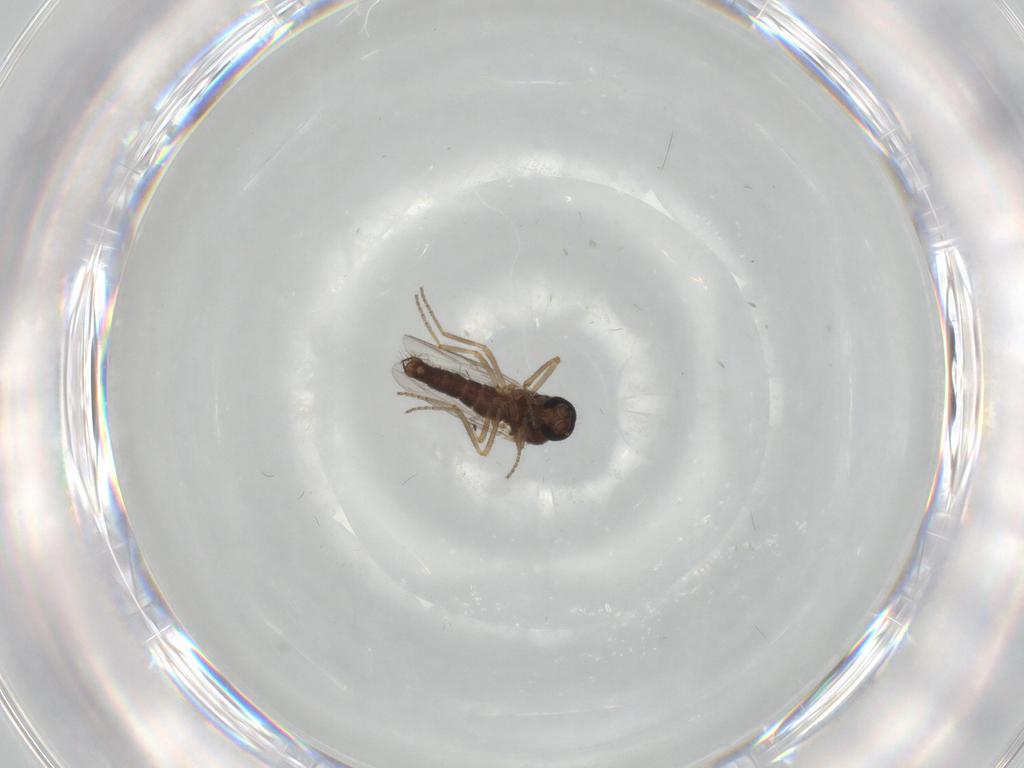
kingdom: Animalia
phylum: Arthropoda
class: Insecta
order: Diptera
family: Ceratopogonidae
